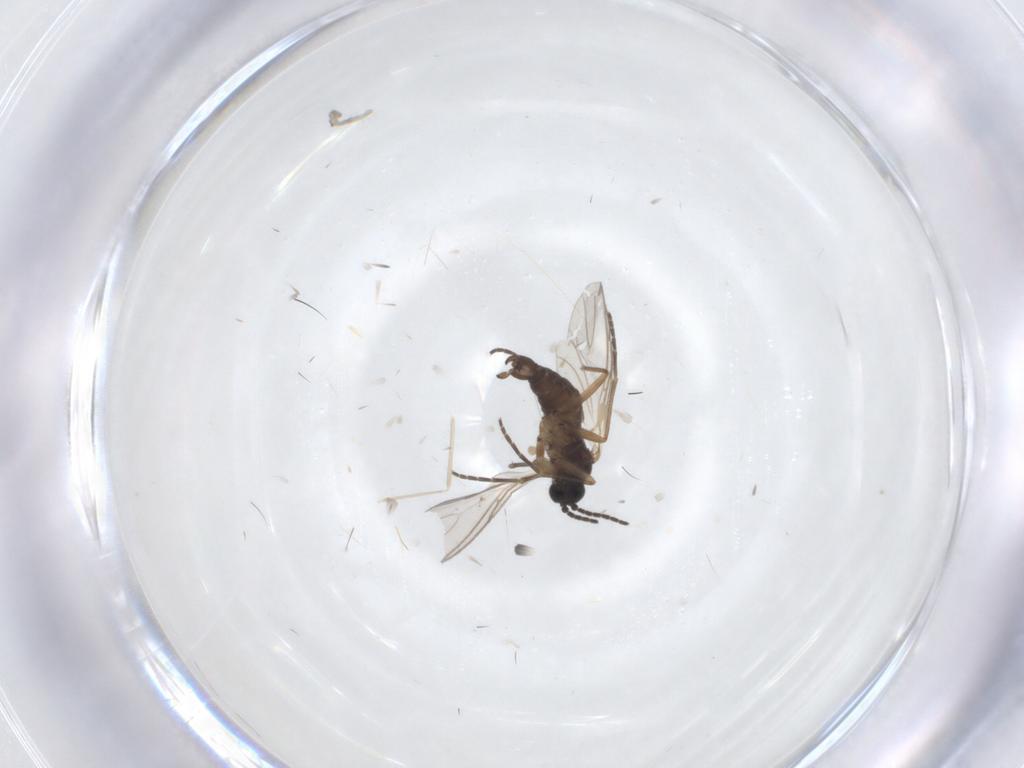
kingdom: Animalia
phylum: Arthropoda
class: Insecta
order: Diptera
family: Sciaridae
